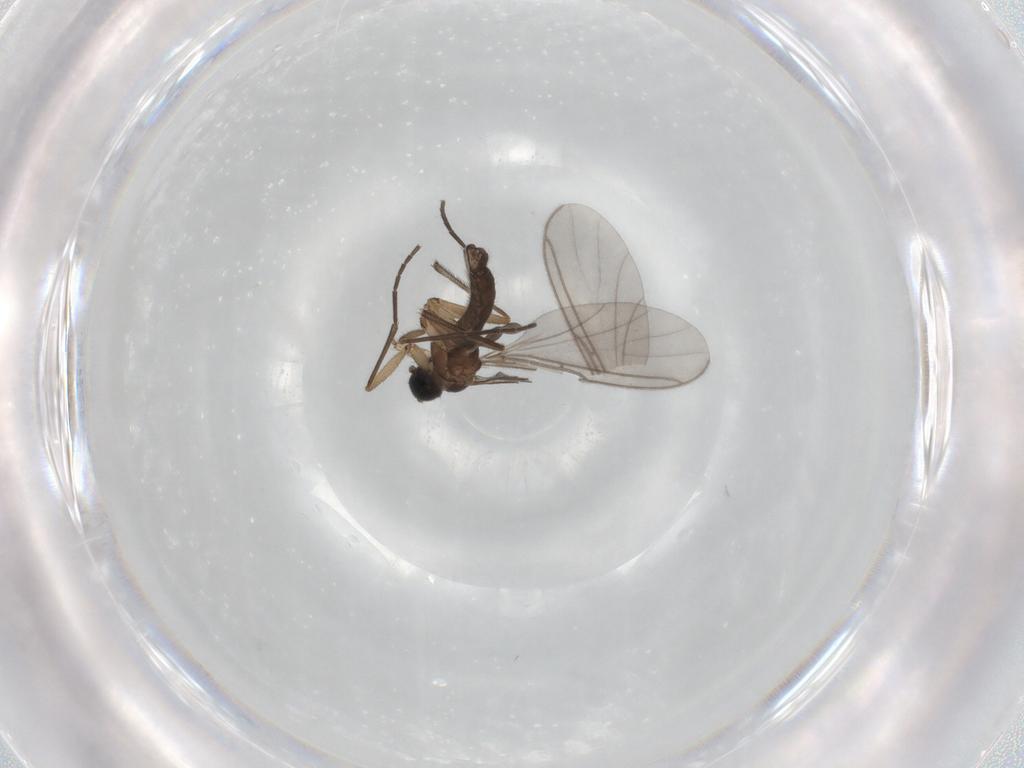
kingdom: Animalia
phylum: Arthropoda
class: Insecta
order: Diptera
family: Sciaridae
